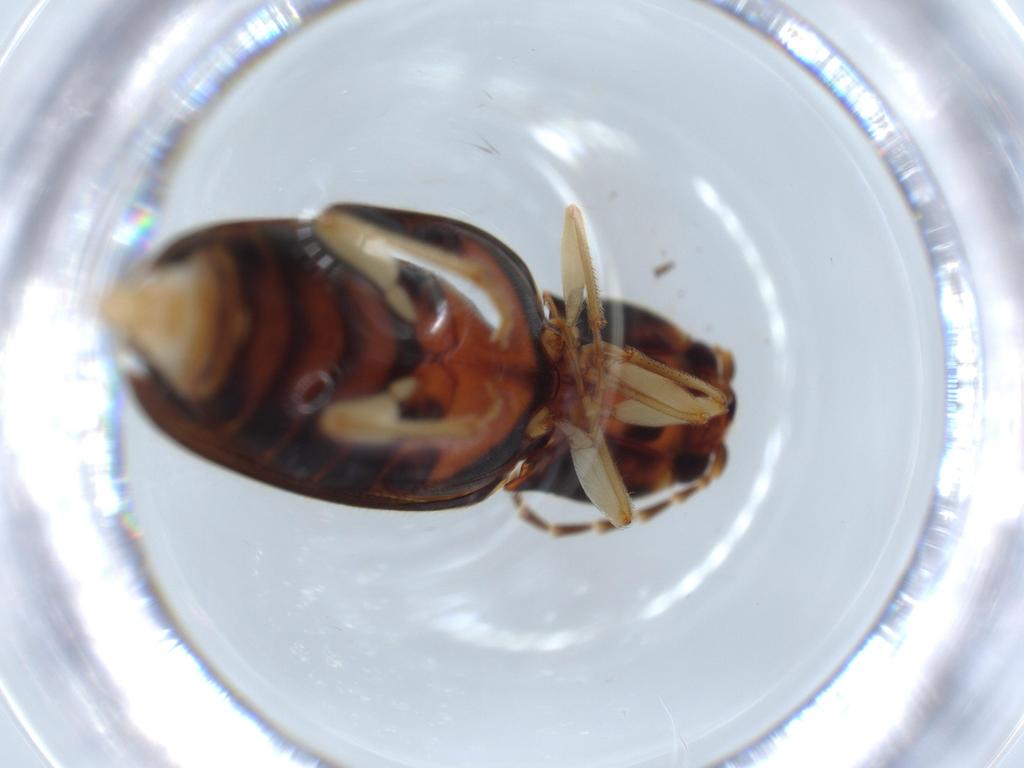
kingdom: Animalia
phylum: Arthropoda
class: Insecta
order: Coleoptera
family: Elateridae
